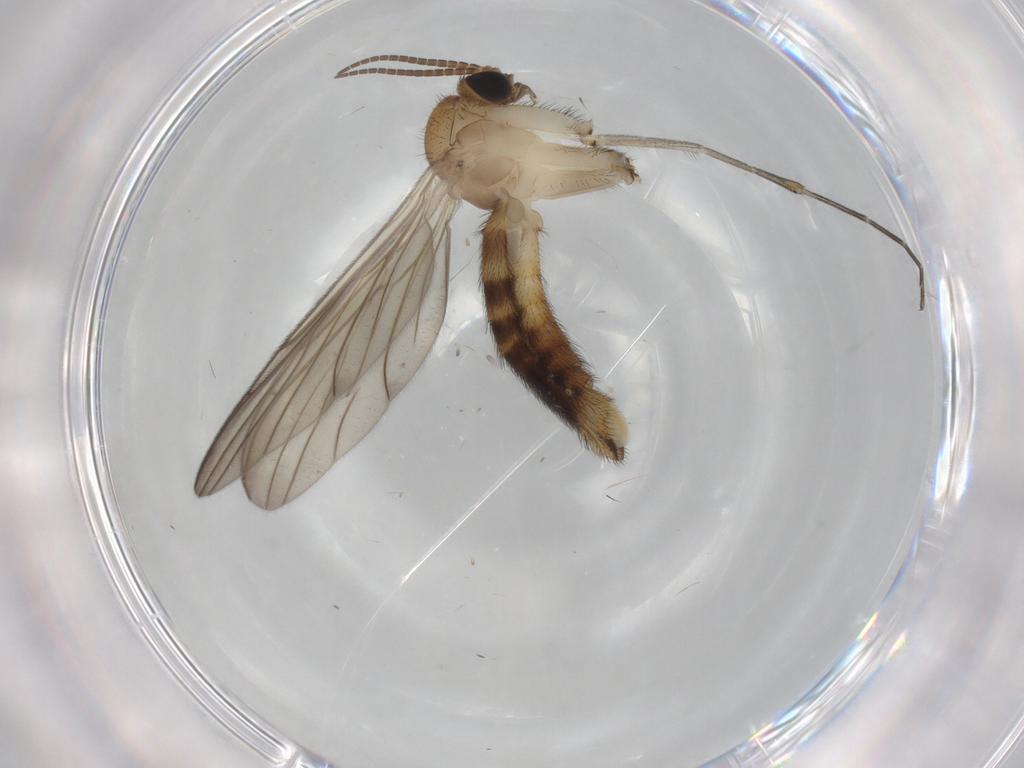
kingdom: Animalia
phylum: Arthropoda
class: Insecta
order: Diptera
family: Keroplatidae
